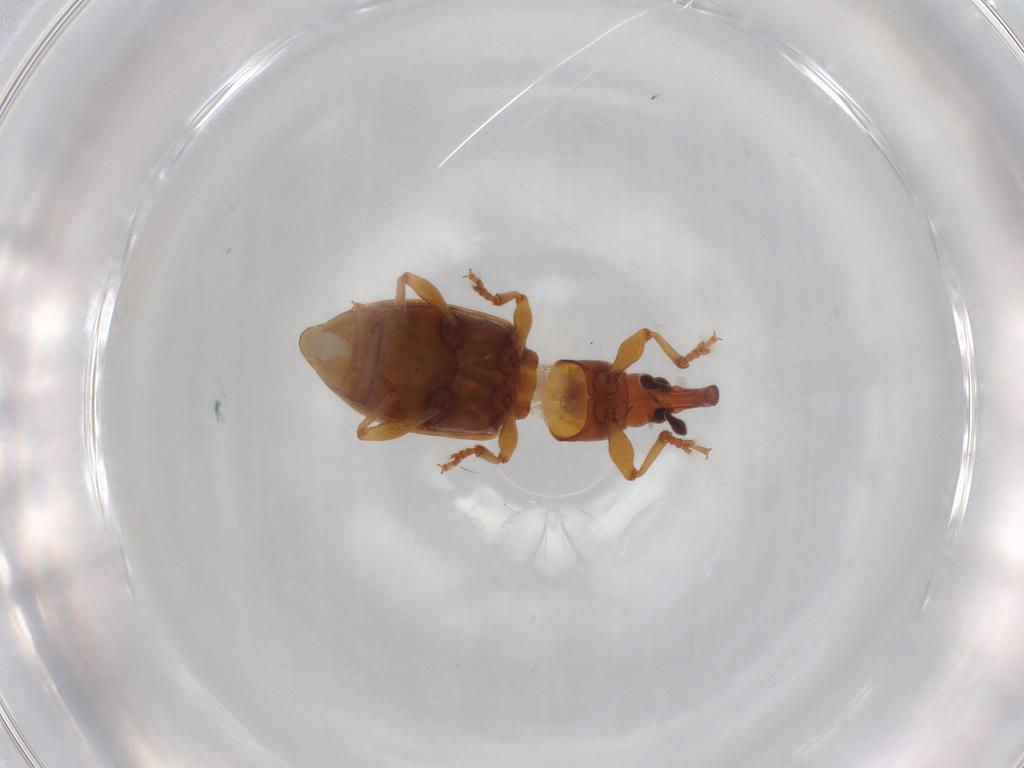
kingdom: Animalia
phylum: Arthropoda
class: Insecta
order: Coleoptera
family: Curculionidae
